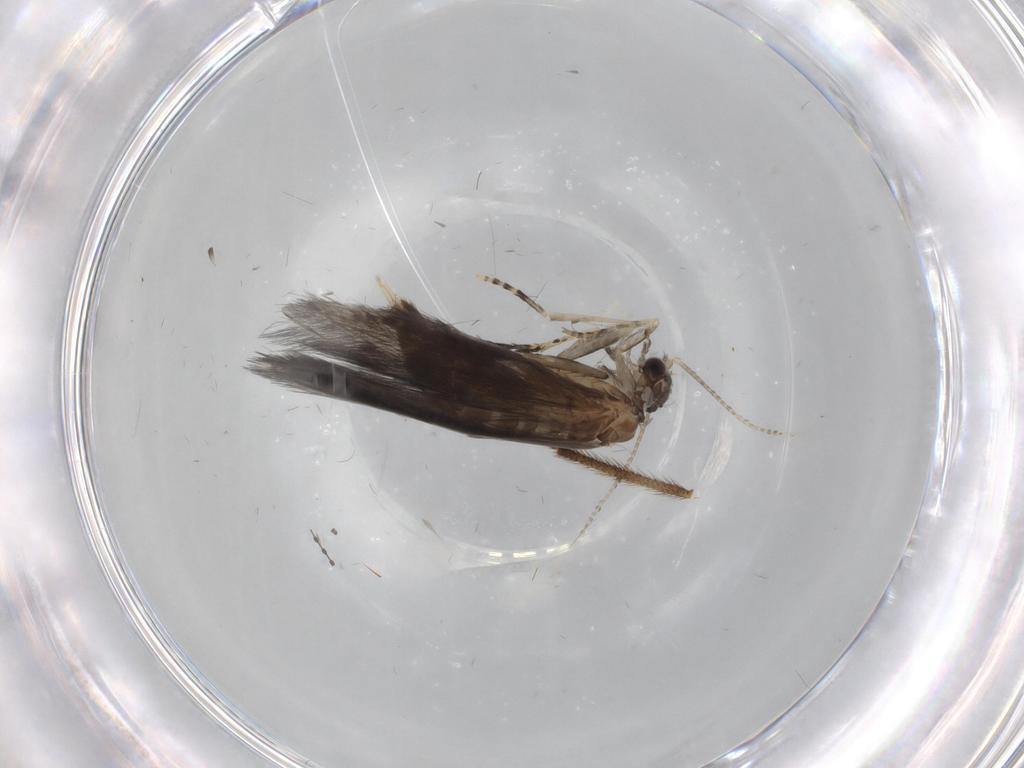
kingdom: Animalia
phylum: Arthropoda
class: Insecta
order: Trichoptera
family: Hydroptilidae
